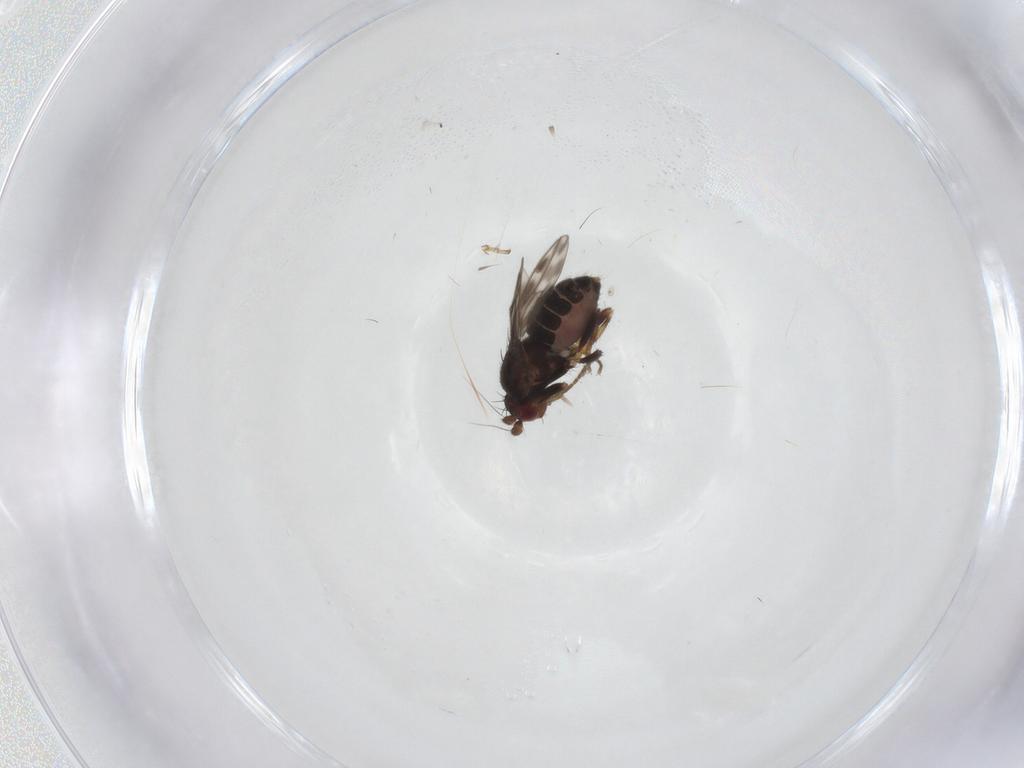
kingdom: Animalia
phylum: Arthropoda
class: Insecta
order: Diptera
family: Sphaeroceridae
